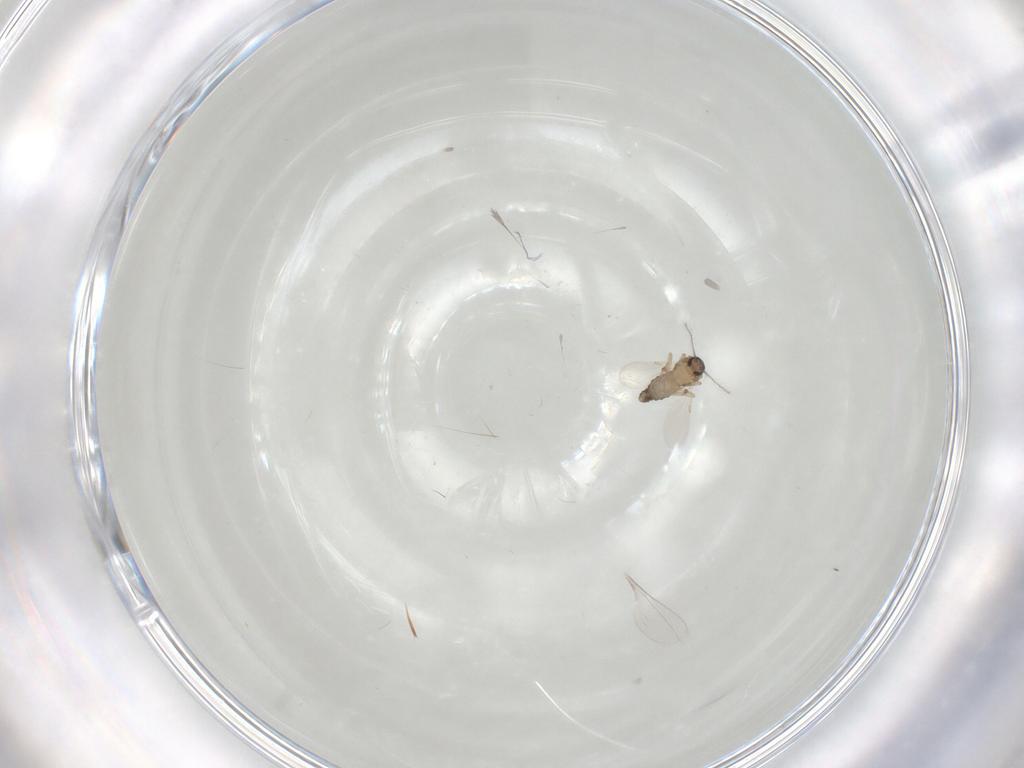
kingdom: Animalia
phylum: Arthropoda
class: Insecta
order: Diptera
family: Ceratopogonidae
